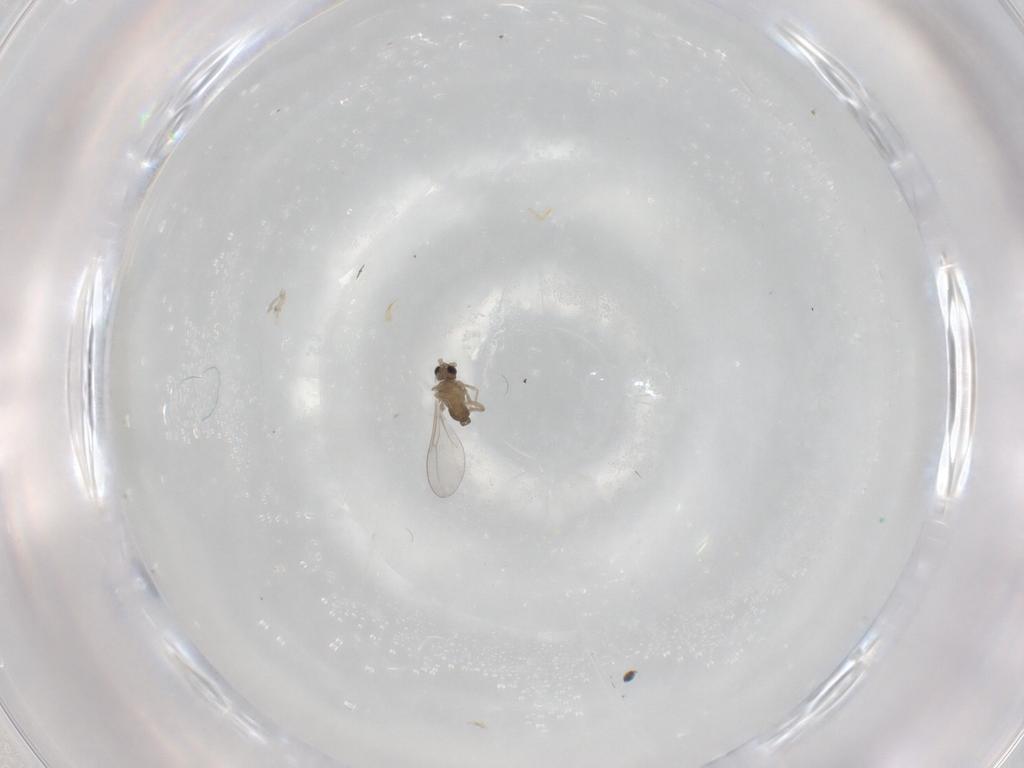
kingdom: Animalia
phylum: Arthropoda
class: Insecta
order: Diptera
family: Cecidomyiidae
